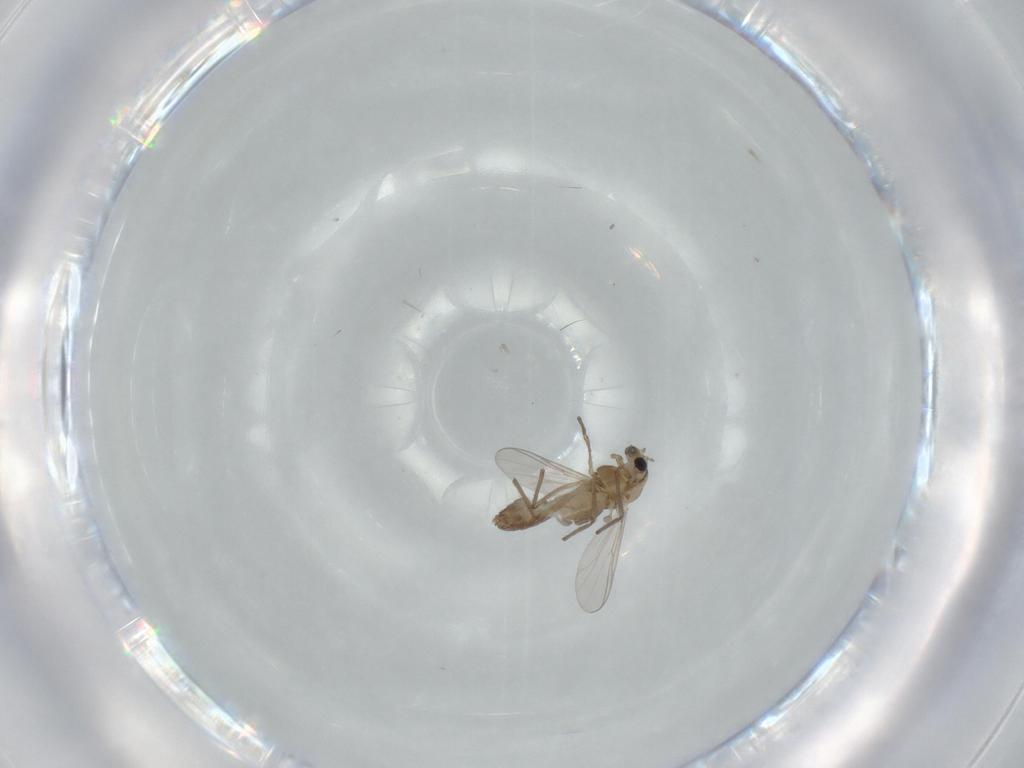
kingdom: Animalia
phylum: Arthropoda
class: Insecta
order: Diptera
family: Chironomidae
